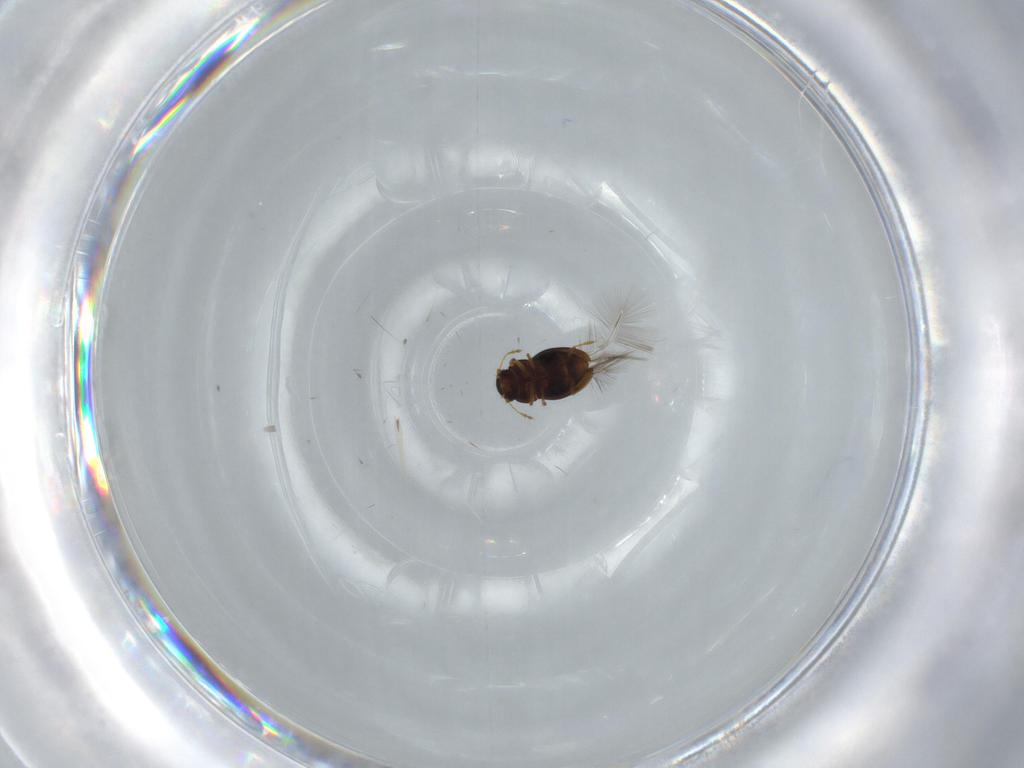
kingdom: Animalia
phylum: Arthropoda
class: Insecta
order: Coleoptera
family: Ptiliidae
